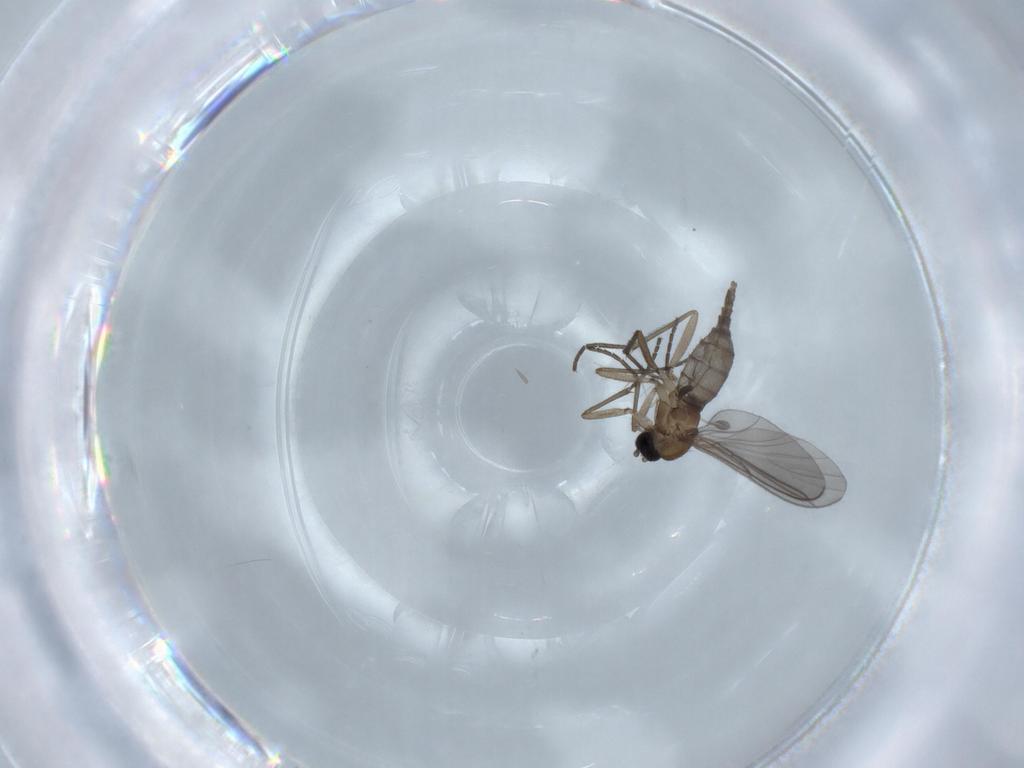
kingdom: Animalia
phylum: Arthropoda
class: Insecta
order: Diptera
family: Sciaridae
